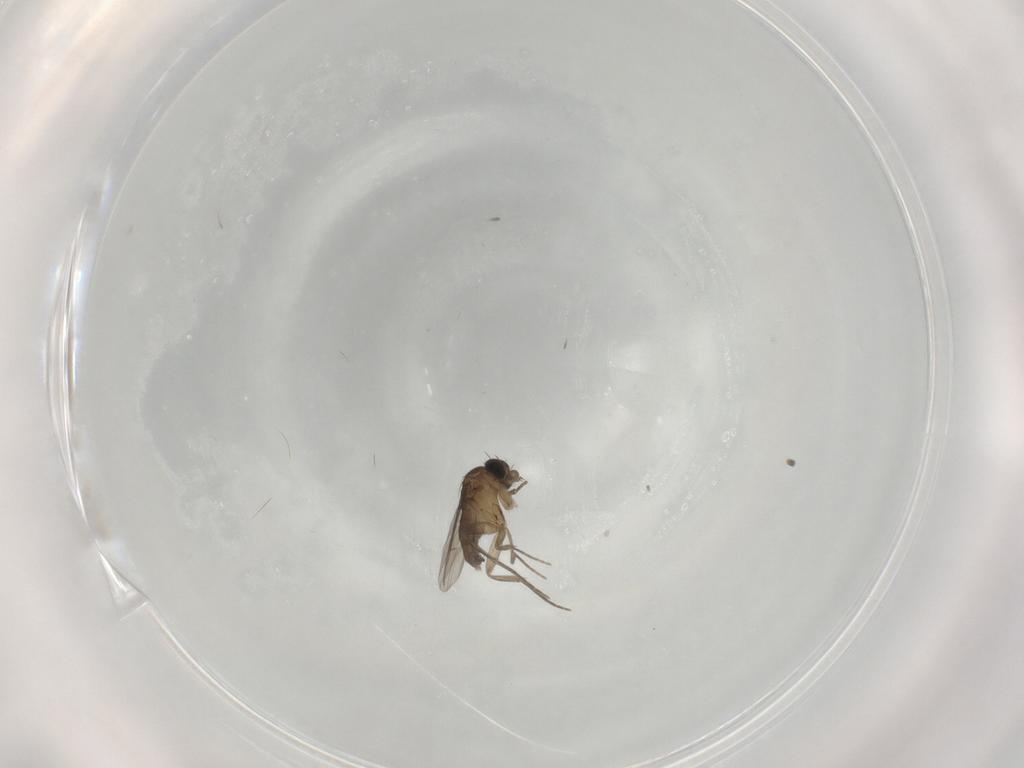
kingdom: Animalia
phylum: Arthropoda
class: Insecta
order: Diptera
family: Phoridae
